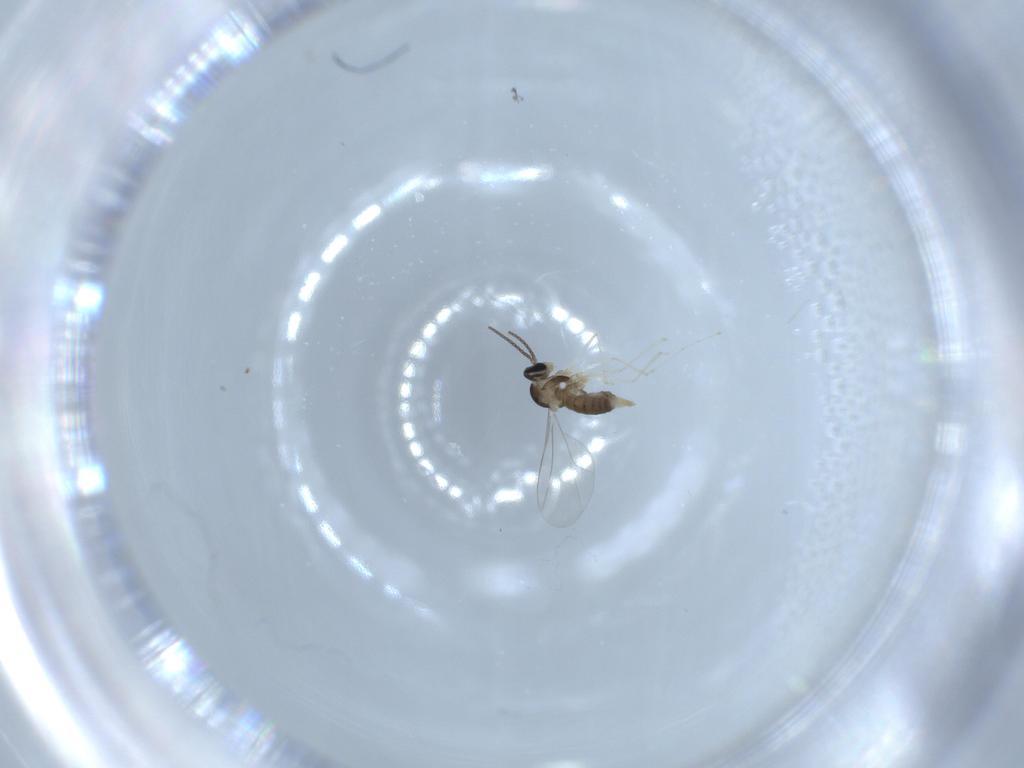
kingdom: Animalia
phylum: Arthropoda
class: Insecta
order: Diptera
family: Cecidomyiidae
